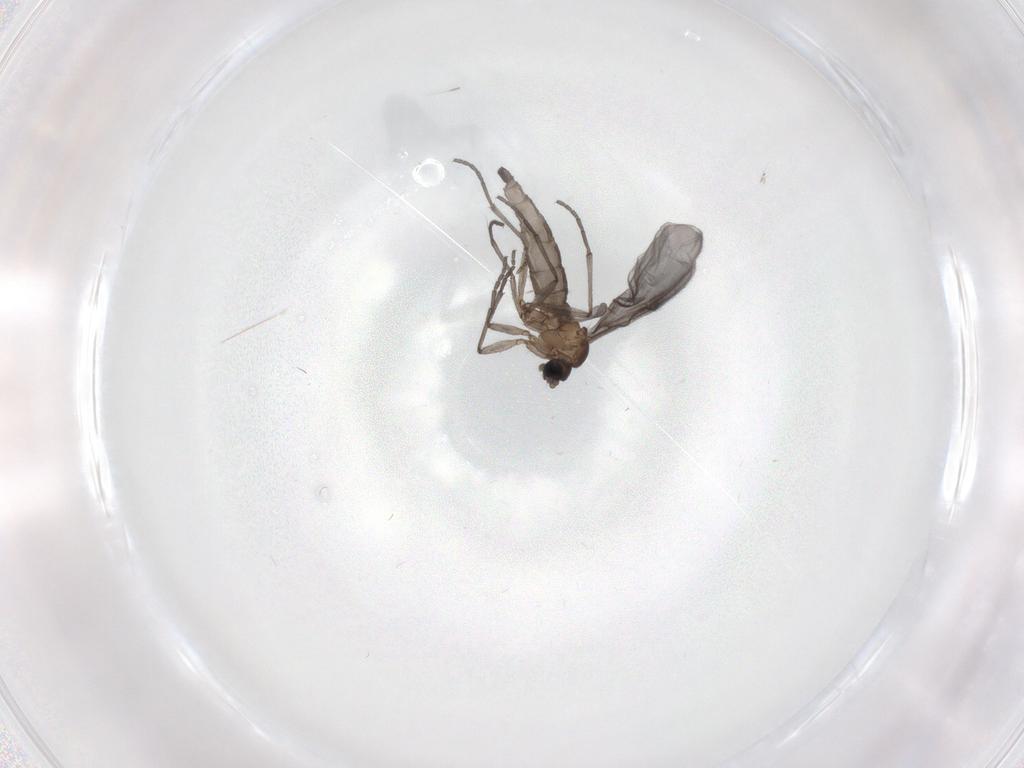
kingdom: Animalia
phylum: Arthropoda
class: Insecta
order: Diptera
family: Sciaridae
